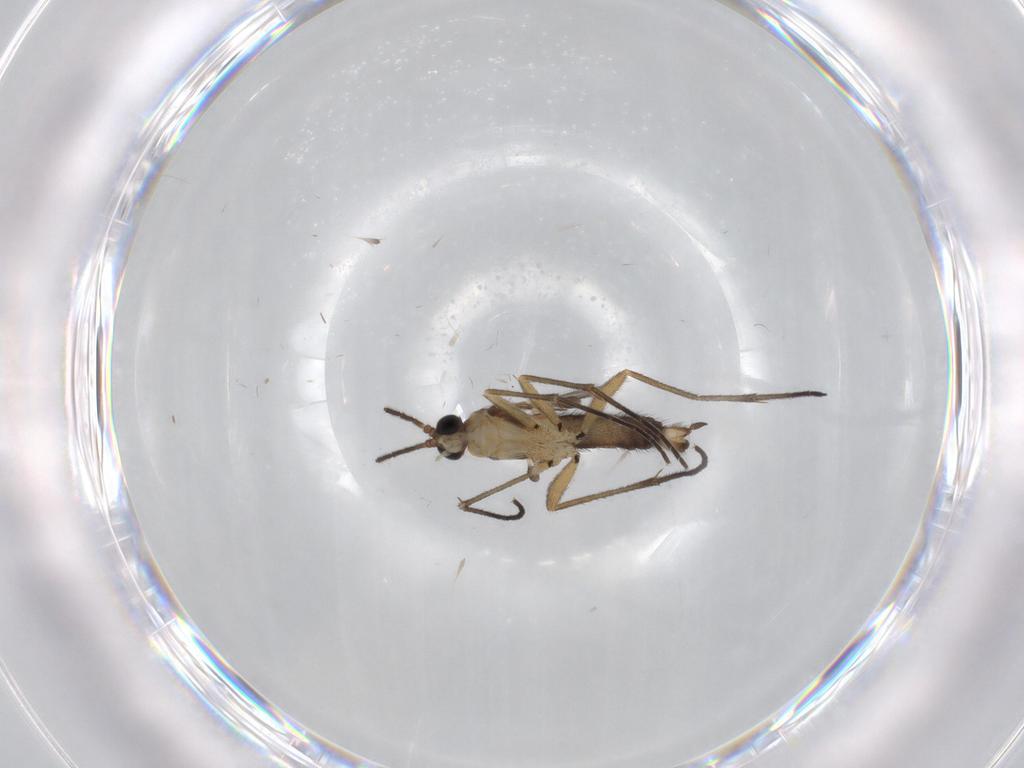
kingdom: Animalia
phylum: Arthropoda
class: Insecta
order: Diptera
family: Sciaridae
